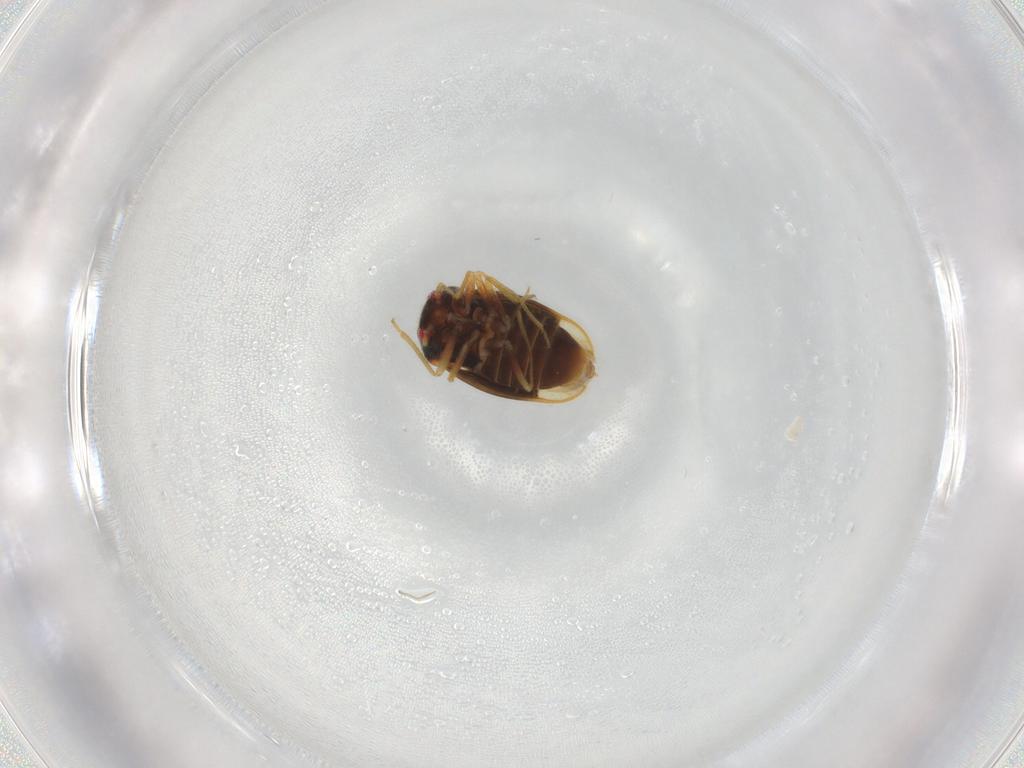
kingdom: Animalia
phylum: Arthropoda
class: Insecta
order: Hemiptera
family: Schizopteridae
